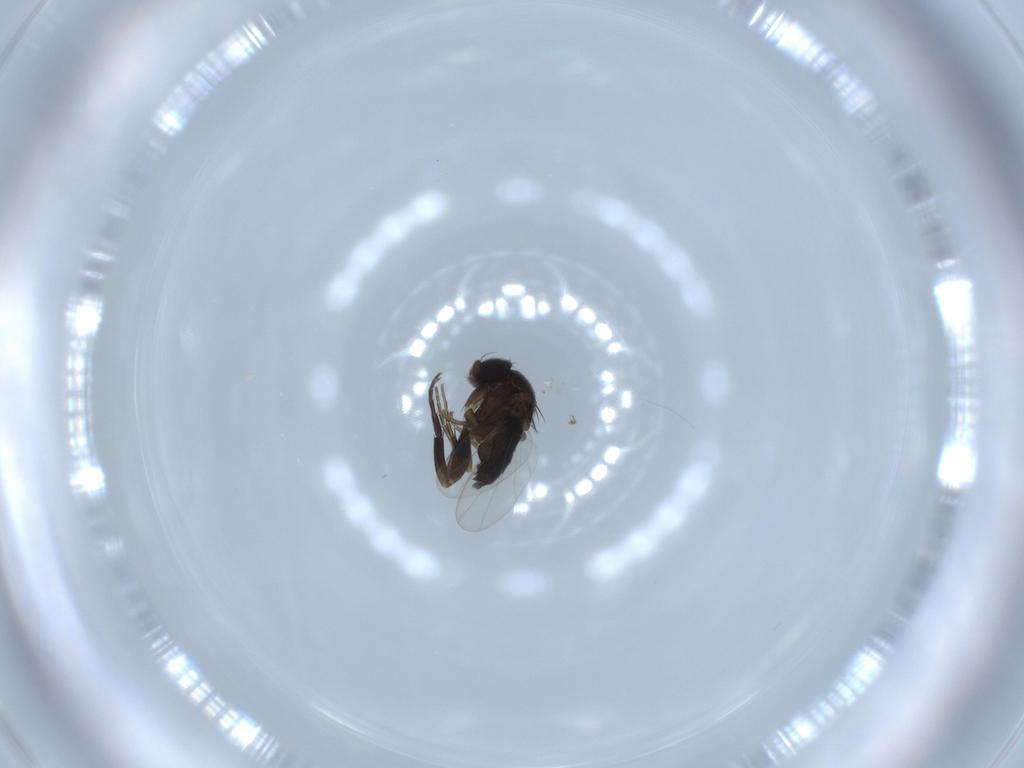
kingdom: Animalia
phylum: Arthropoda
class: Insecta
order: Diptera
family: Phoridae
